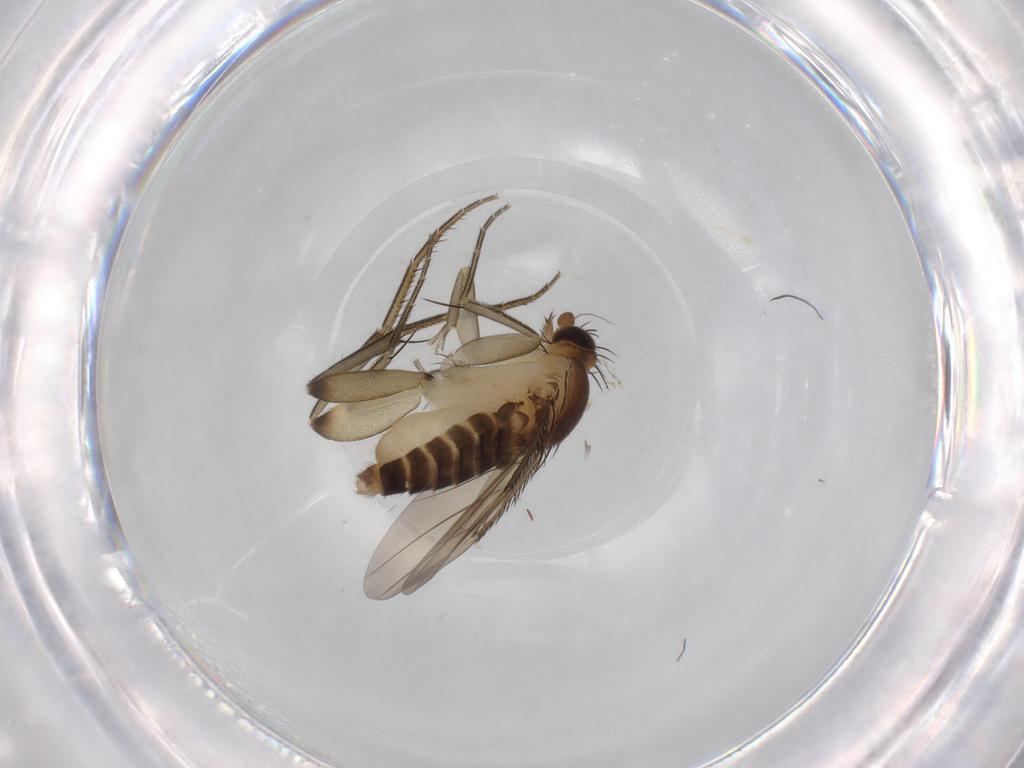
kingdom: Animalia
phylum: Arthropoda
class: Insecta
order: Diptera
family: Phoridae
